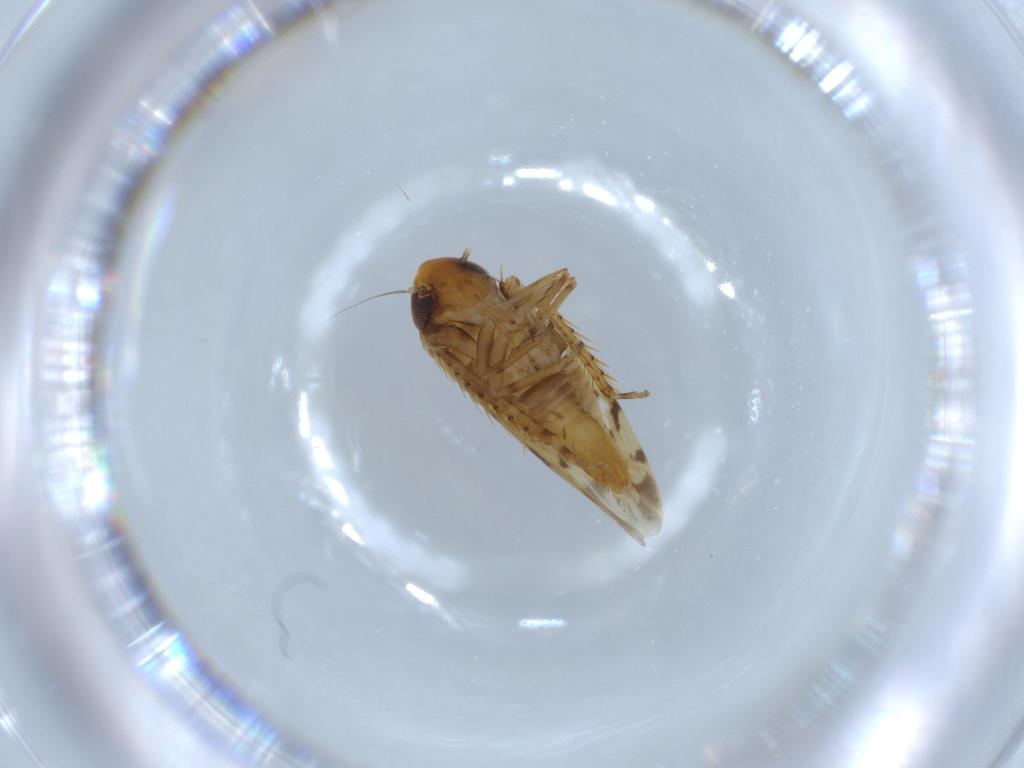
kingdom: Animalia
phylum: Arthropoda
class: Insecta
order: Hemiptera
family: Cicadellidae
